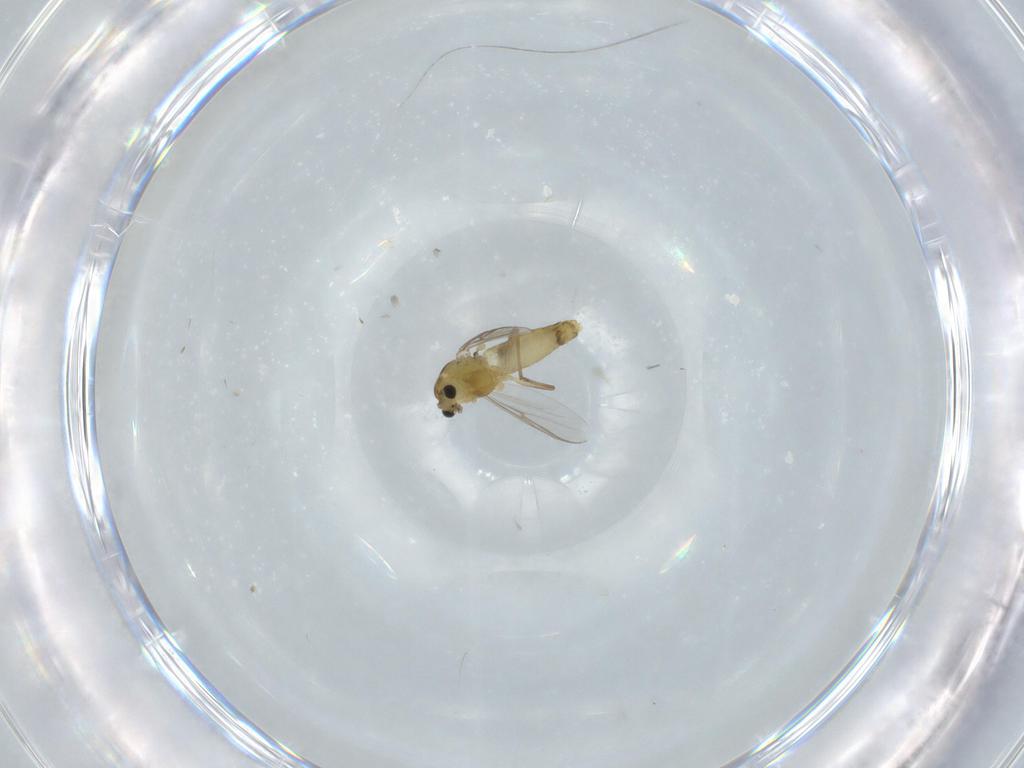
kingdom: Animalia
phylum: Arthropoda
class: Insecta
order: Diptera
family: Chironomidae
